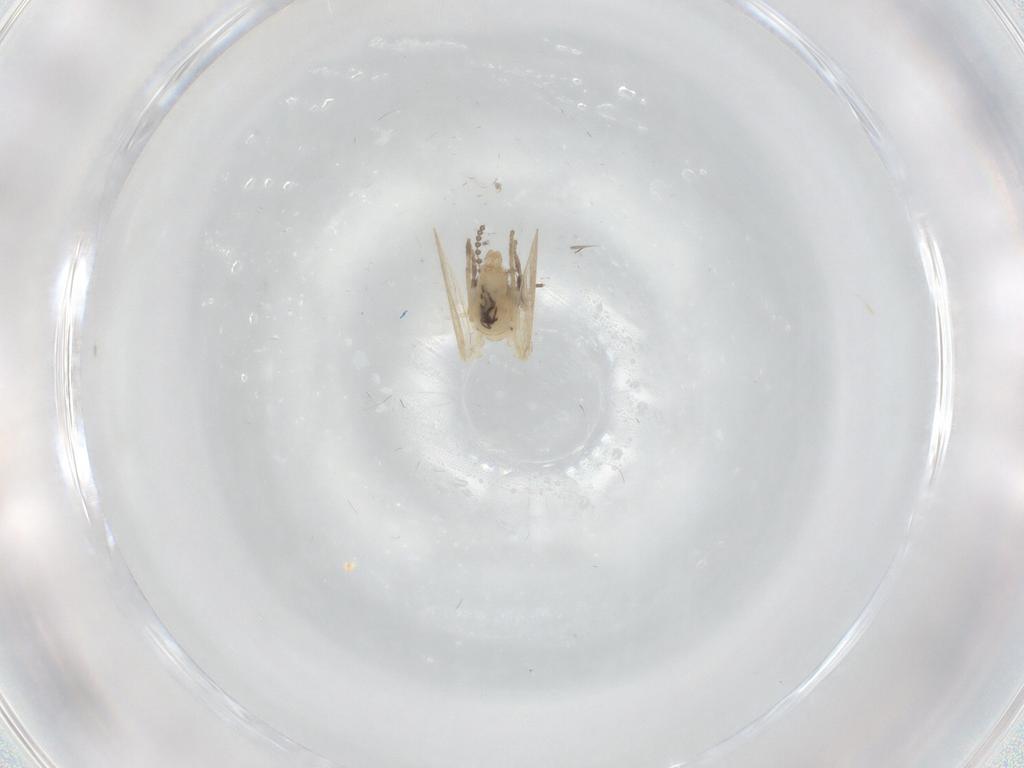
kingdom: Animalia
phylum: Arthropoda
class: Insecta
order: Diptera
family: Psychodidae
